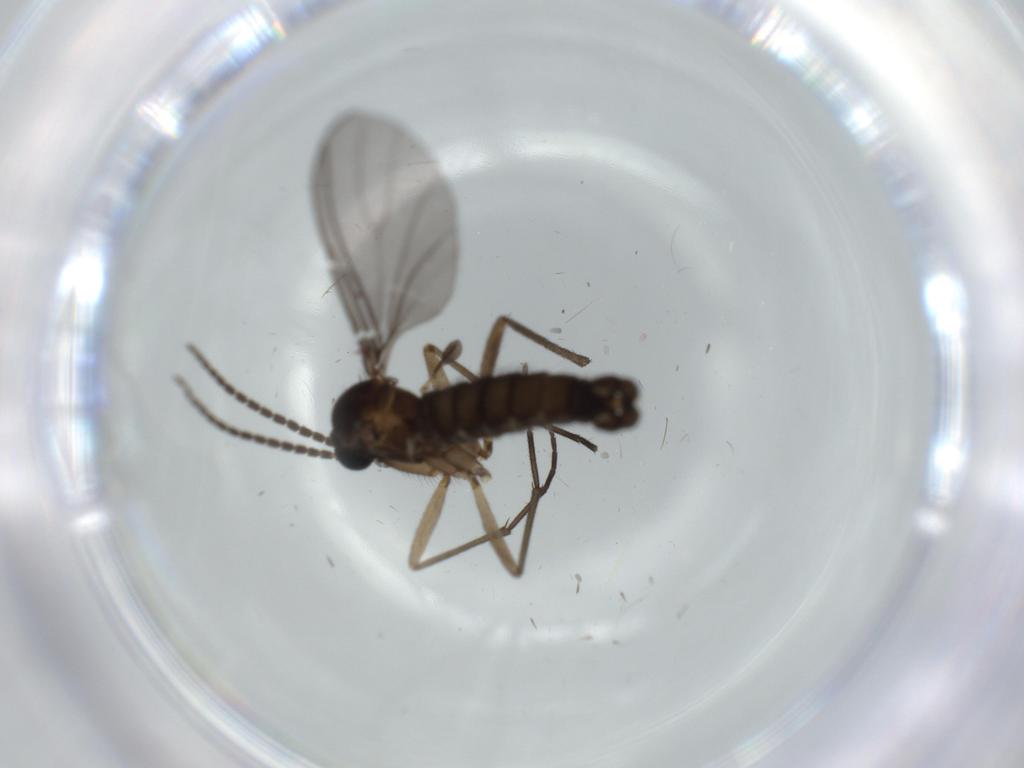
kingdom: Animalia
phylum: Arthropoda
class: Insecta
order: Diptera
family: Sciaridae
